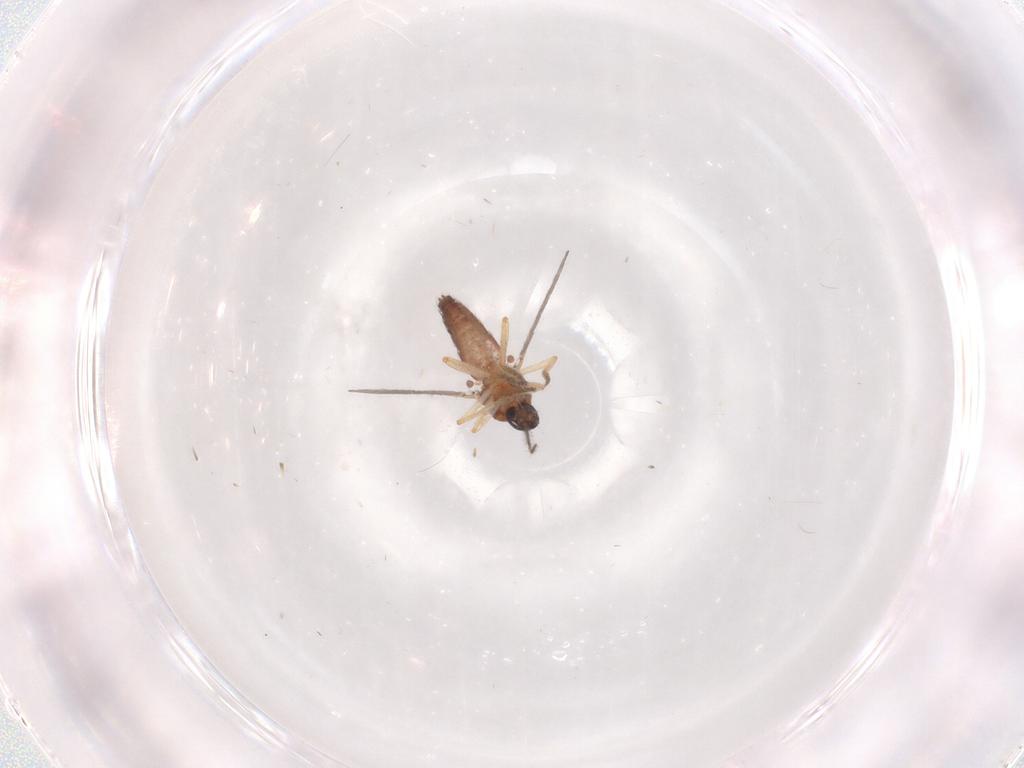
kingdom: Animalia
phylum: Arthropoda
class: Insecta
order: Diptera
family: Ceratopogonidae
